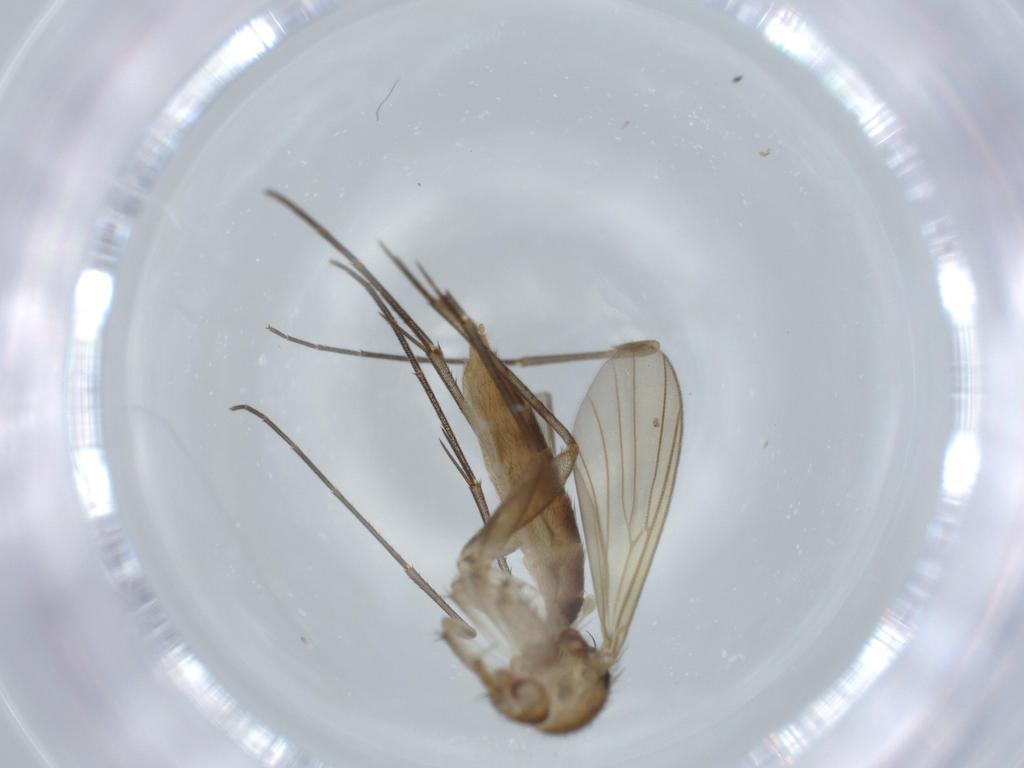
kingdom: Animalia
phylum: Arthropoda
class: Insecta
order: Diptera
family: Mycetophilidae
